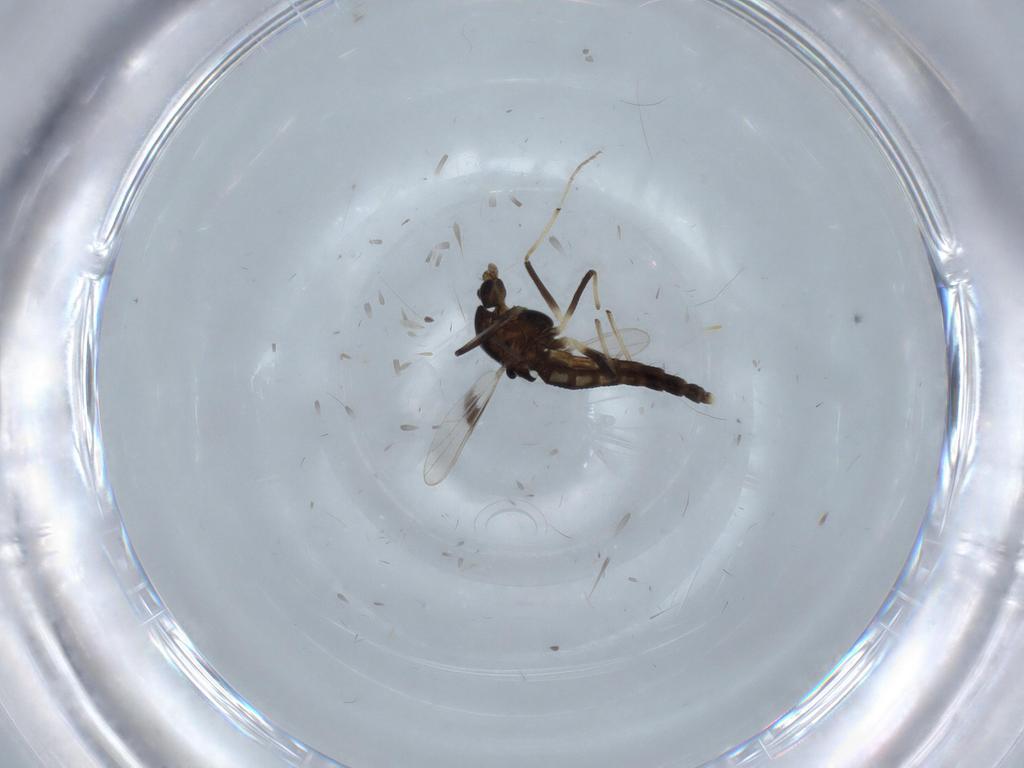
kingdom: Animalia
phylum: Arthropoda
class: Insecta
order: Diptera
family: Chironomidae
